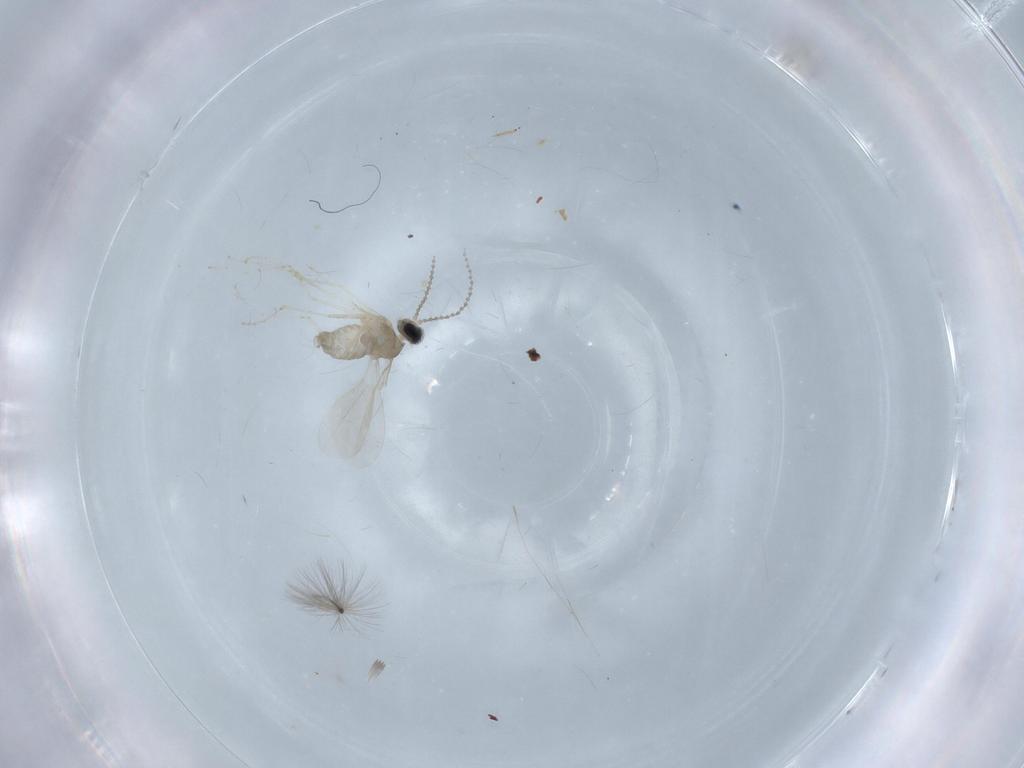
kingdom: Animalia
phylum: Arthropoda
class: Insecta
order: Diptera
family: Cecidomyiidae
